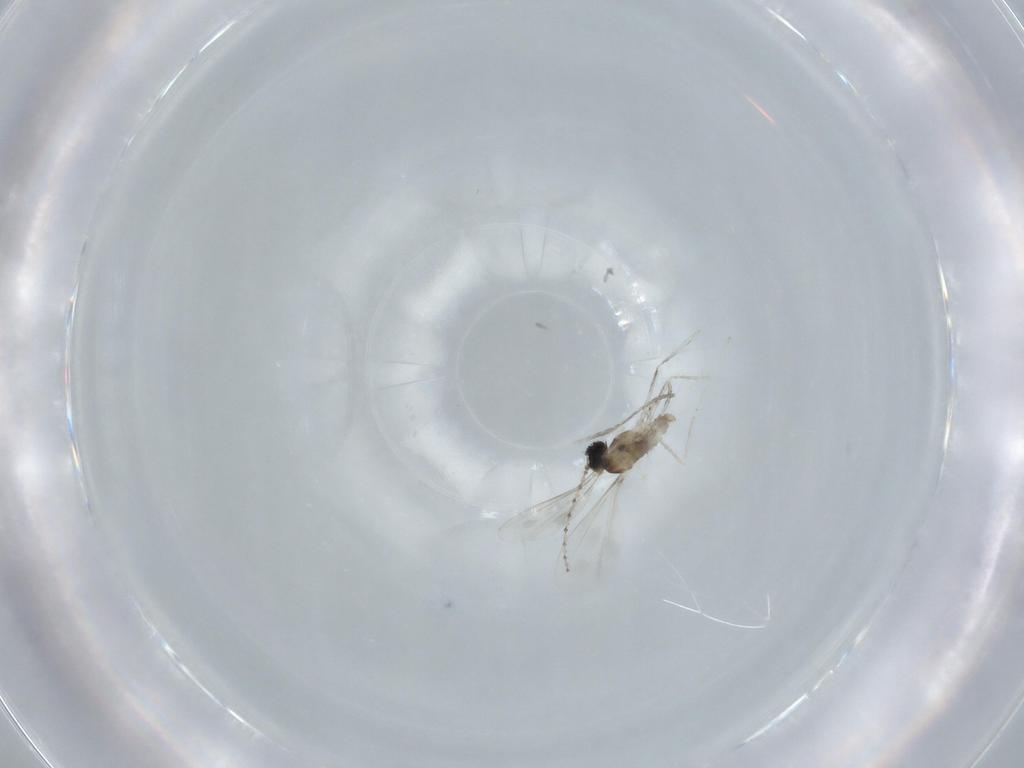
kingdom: Animalia
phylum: Arthropoda
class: Insecta
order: Diptera
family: Cecidomyiidae
